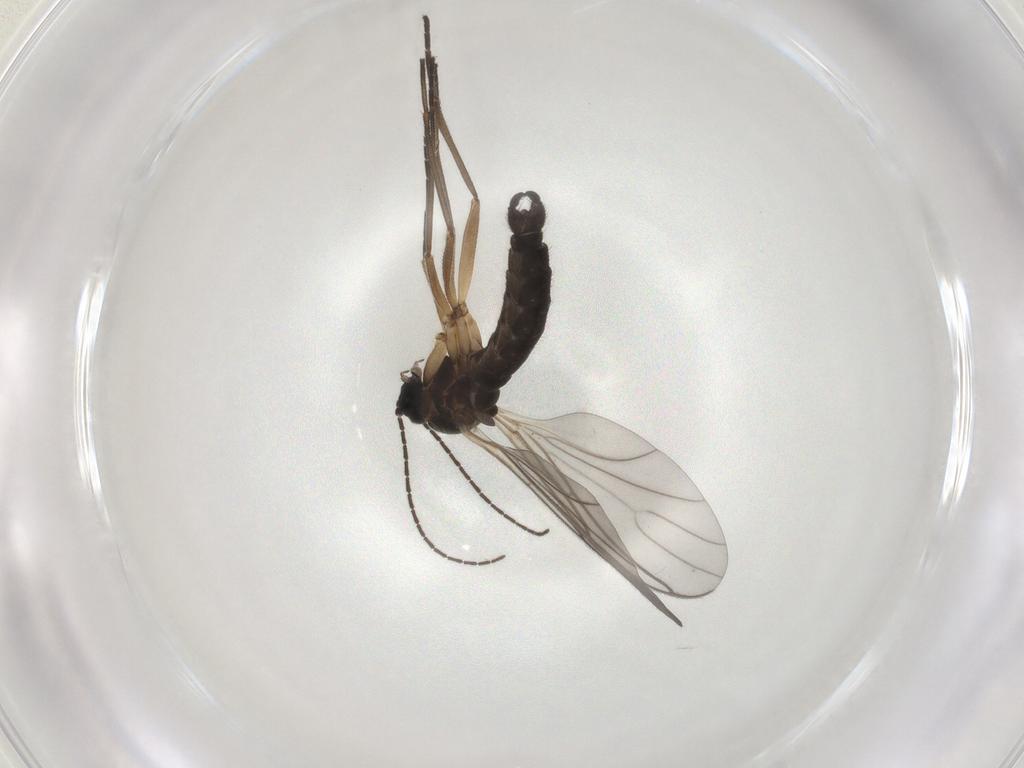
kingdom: Animalia
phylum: Arthropoda
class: Insecta
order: Diptera
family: Sciaridae
